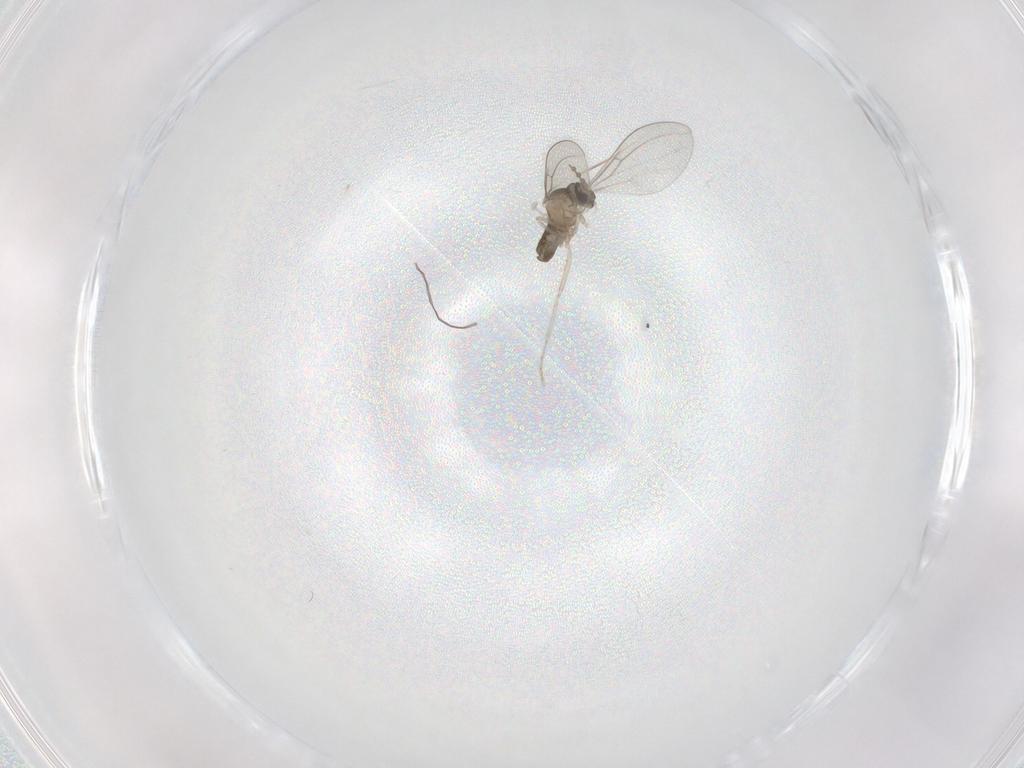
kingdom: Animalia
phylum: Arthropoda
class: Insecta
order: Diptera
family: Cecidomyiidae
